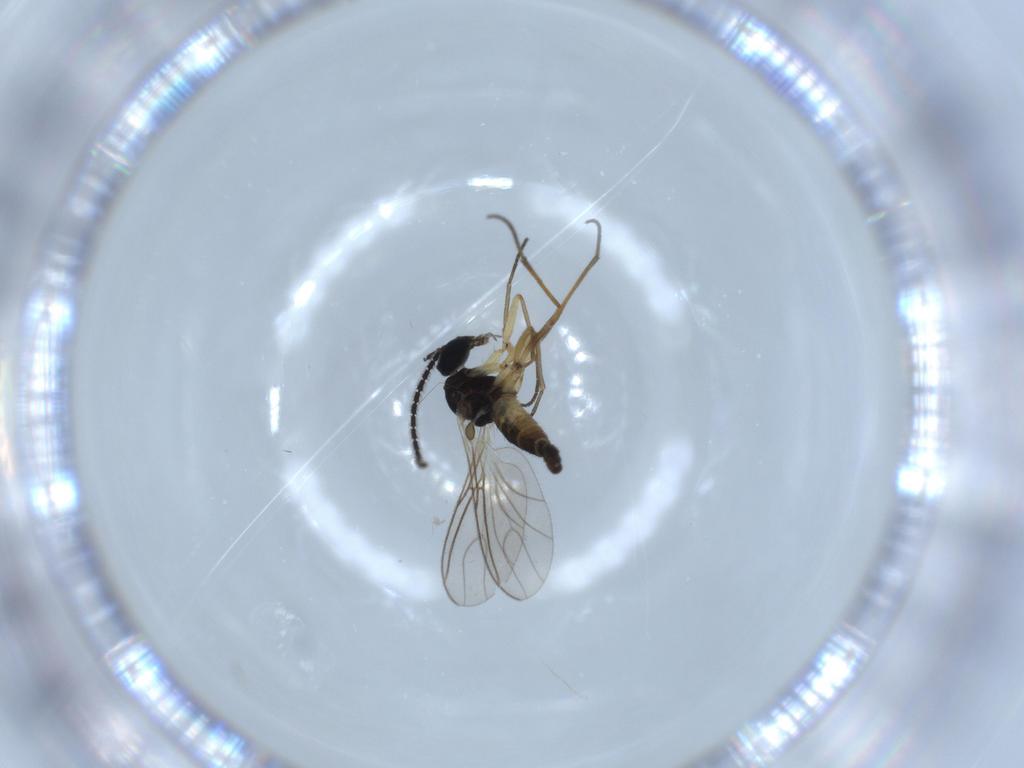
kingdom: Animalia
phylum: Arthropoda
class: Insecta
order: Diptera
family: Sciaridae
